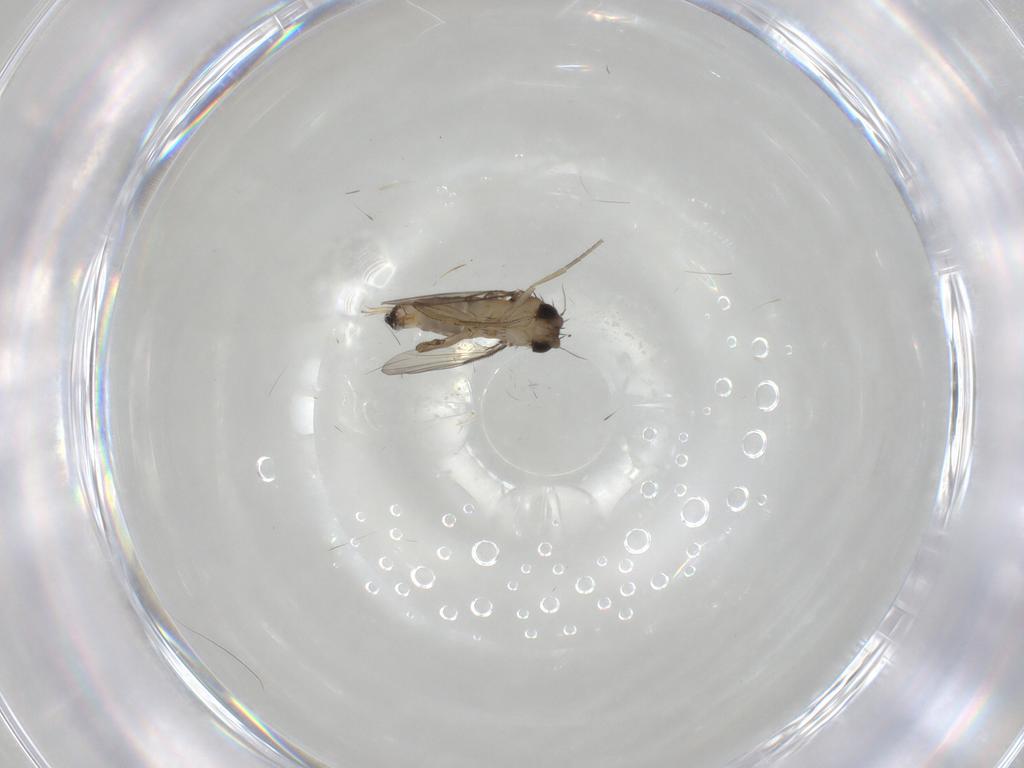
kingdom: Animalia
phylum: Arthropoda
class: Insecta
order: Diptera
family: Phoridae
